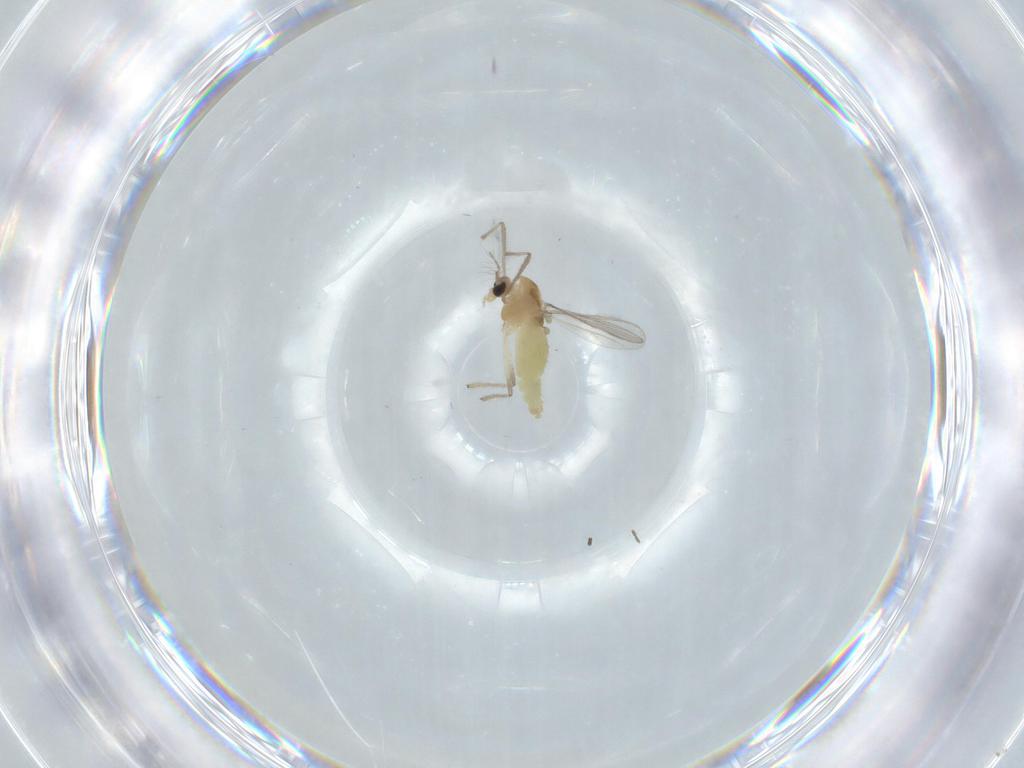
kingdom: Animalia
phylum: Arthropoda
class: Insecta
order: Diptera
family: Chironomidae
